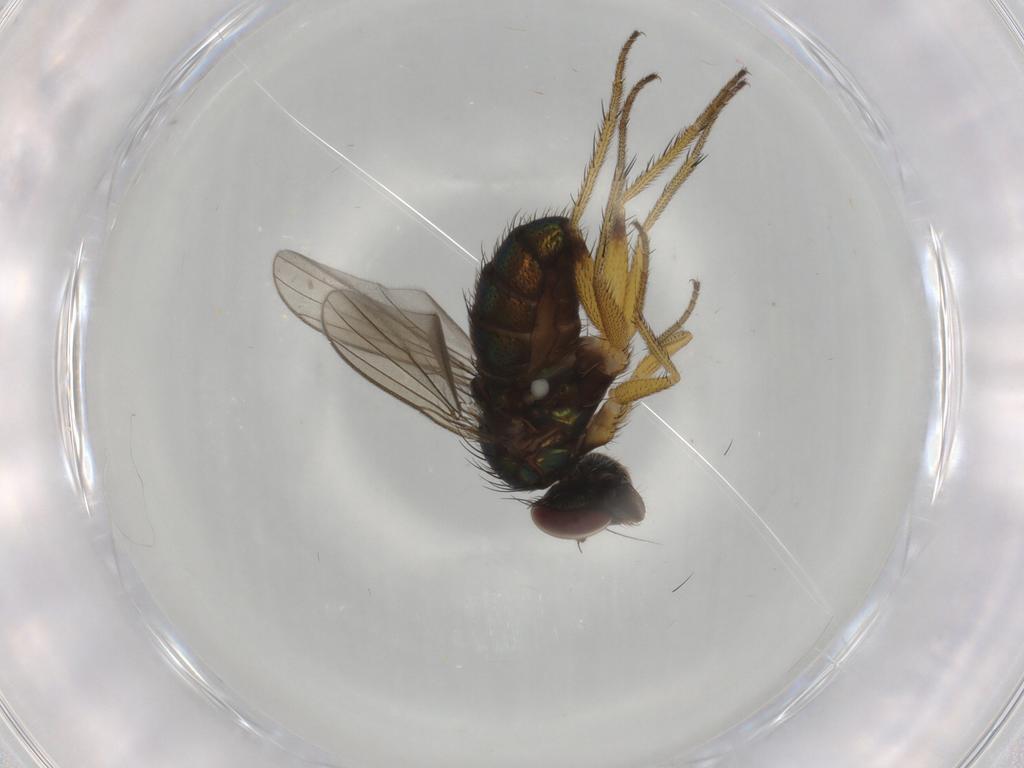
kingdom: Animalia
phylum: Arthropoda
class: Insecta
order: Diptera
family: Dolichopodidae
